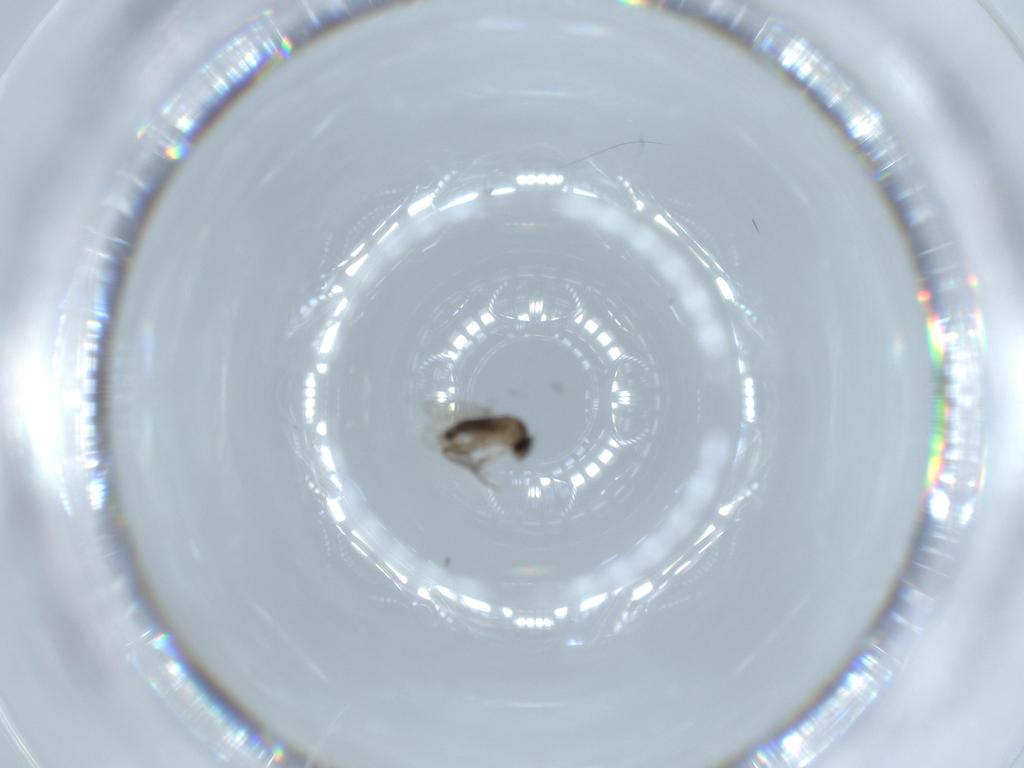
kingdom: Animalia
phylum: Arthropoda
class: Insecta
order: Diptera
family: Phoridae
